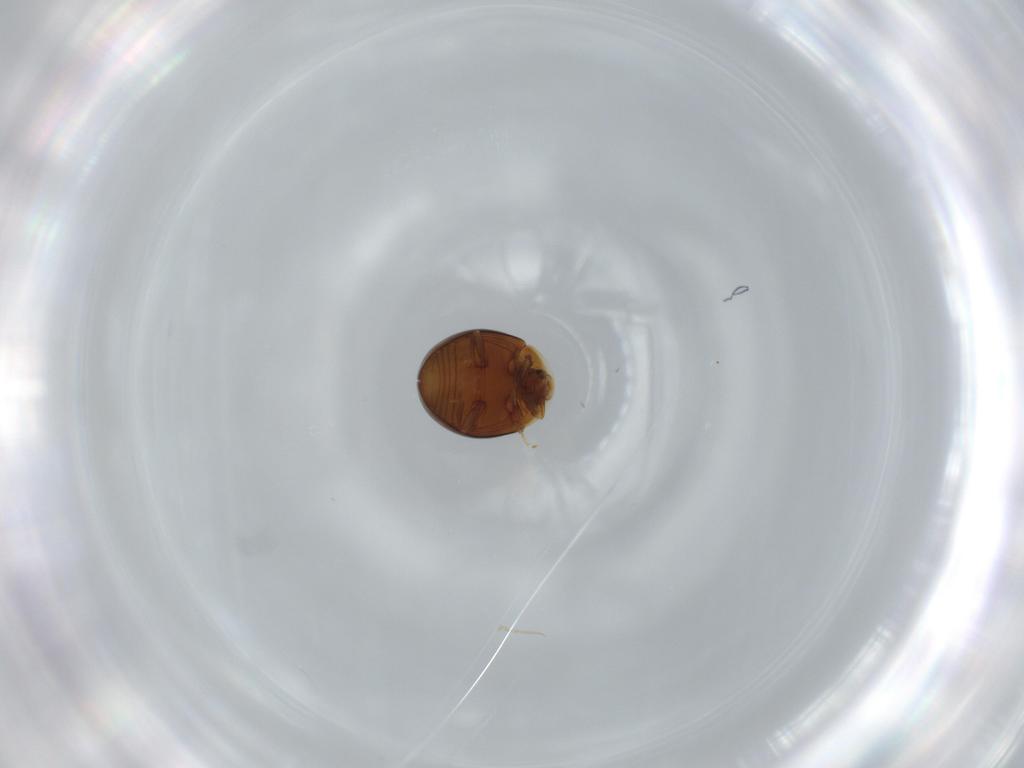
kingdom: Animalia
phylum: Arthropoda
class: Insecta
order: Coleoptera
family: Corylophidae
